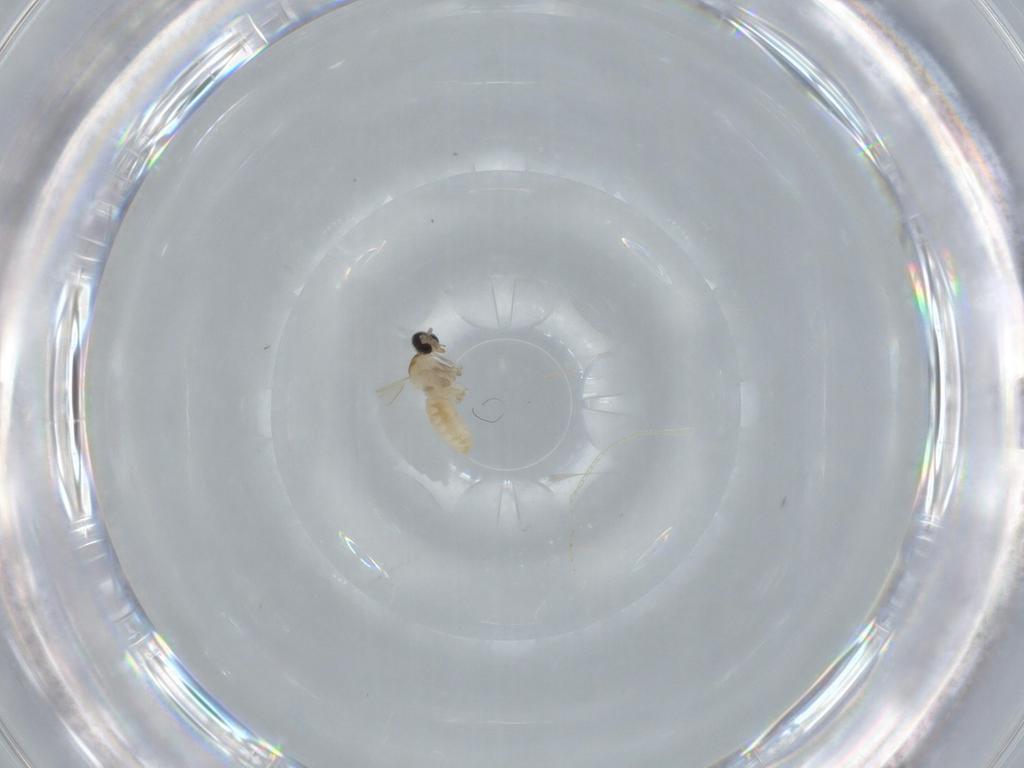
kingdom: Animalia
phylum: Arthropoda
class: Insecta
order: Diptera
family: Cecidomyiidae
